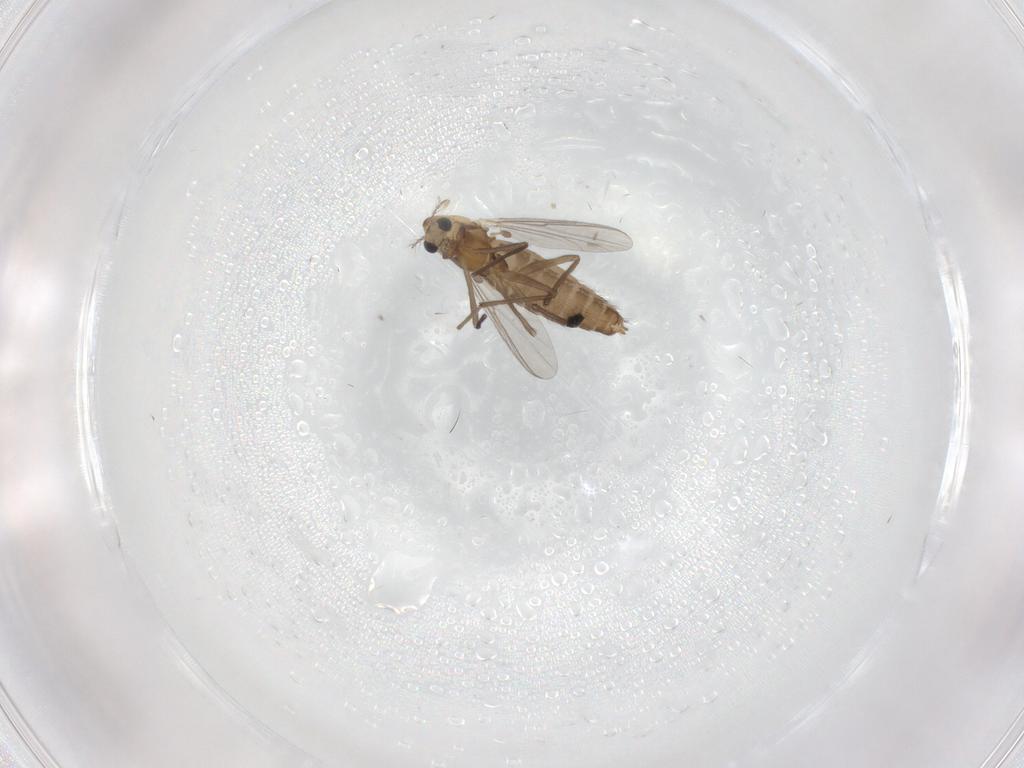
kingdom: Animalia
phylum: Arthropoda
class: Insecta
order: Diptera
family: Chironomidae
